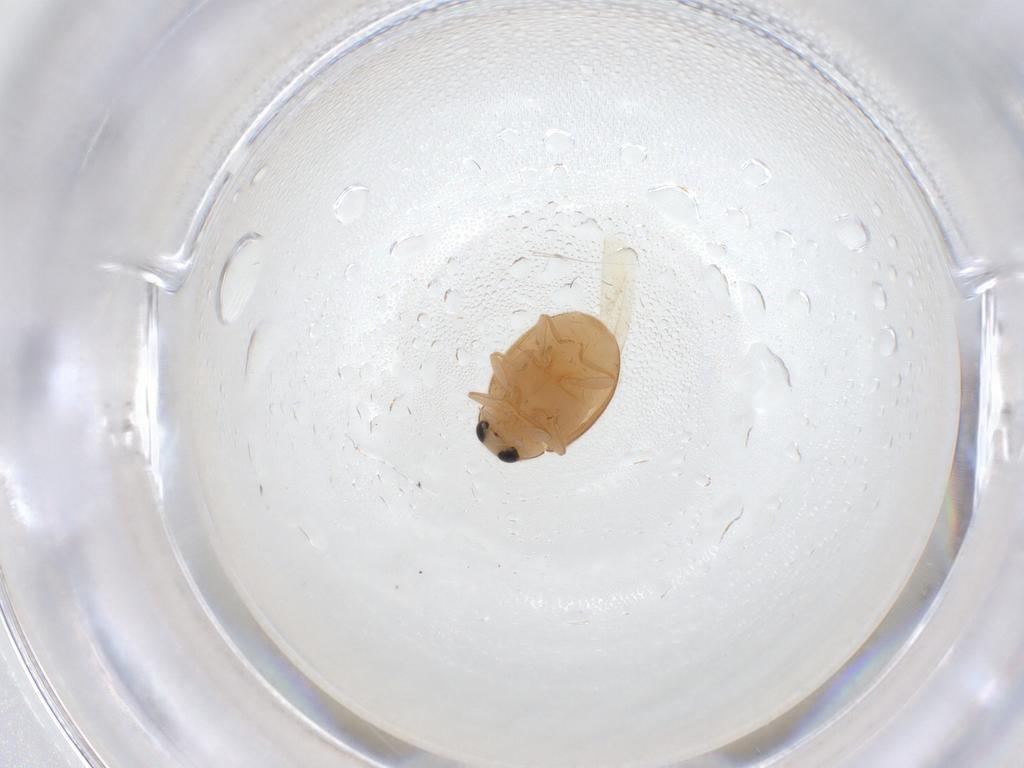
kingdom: Animalia
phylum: Arthropoda
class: Insecta
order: Coleoptera
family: Coccinellidae
